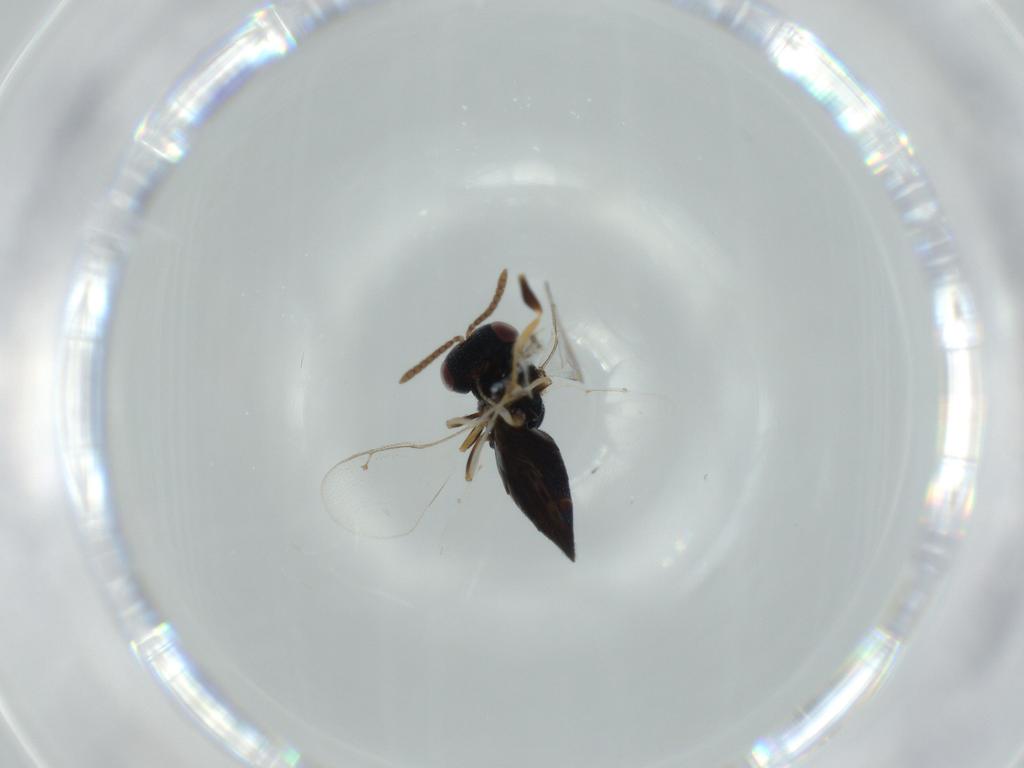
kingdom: Animalia
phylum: Arthropoda
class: Insecta
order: Hymenoptera
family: Pteromalidae
